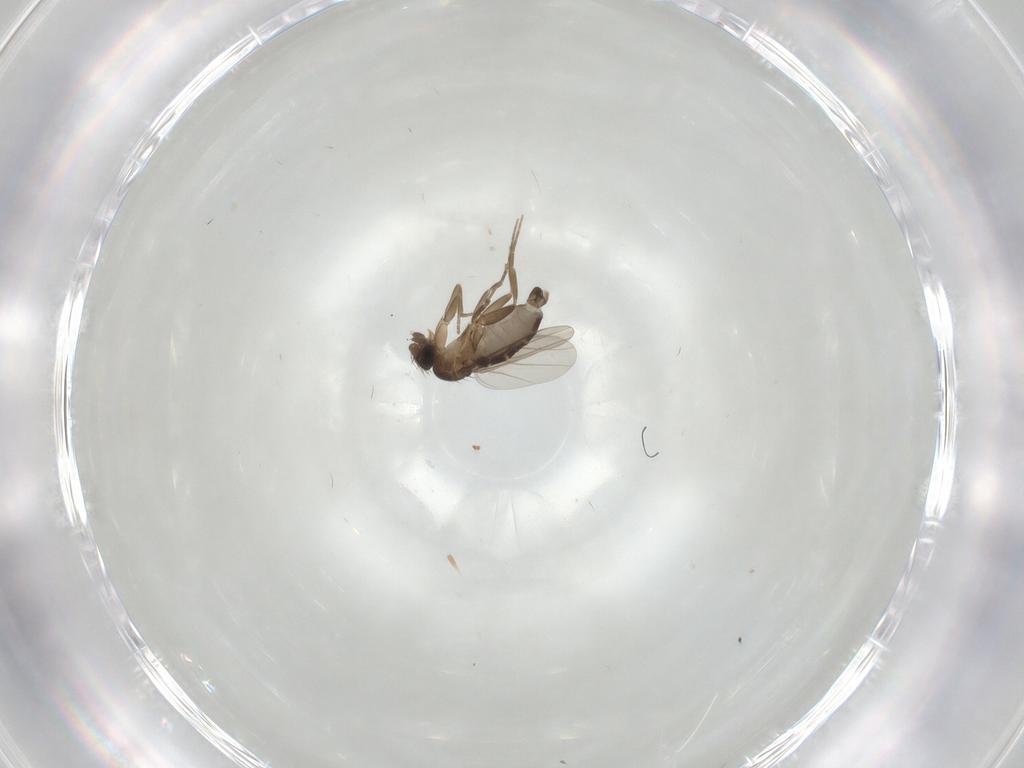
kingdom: Animalia
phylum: Arthropoda
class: Insecta
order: Diptera
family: Phoridae
